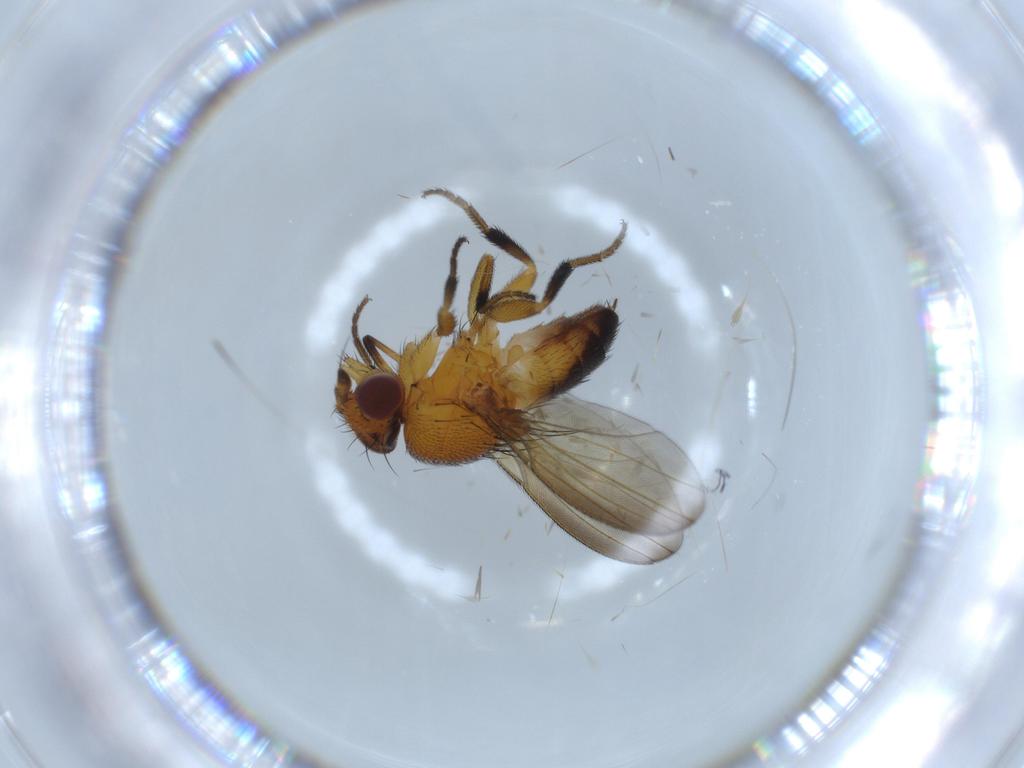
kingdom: Animalia
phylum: Arthropoda
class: Insecta
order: Diptera
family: Milichiidae
